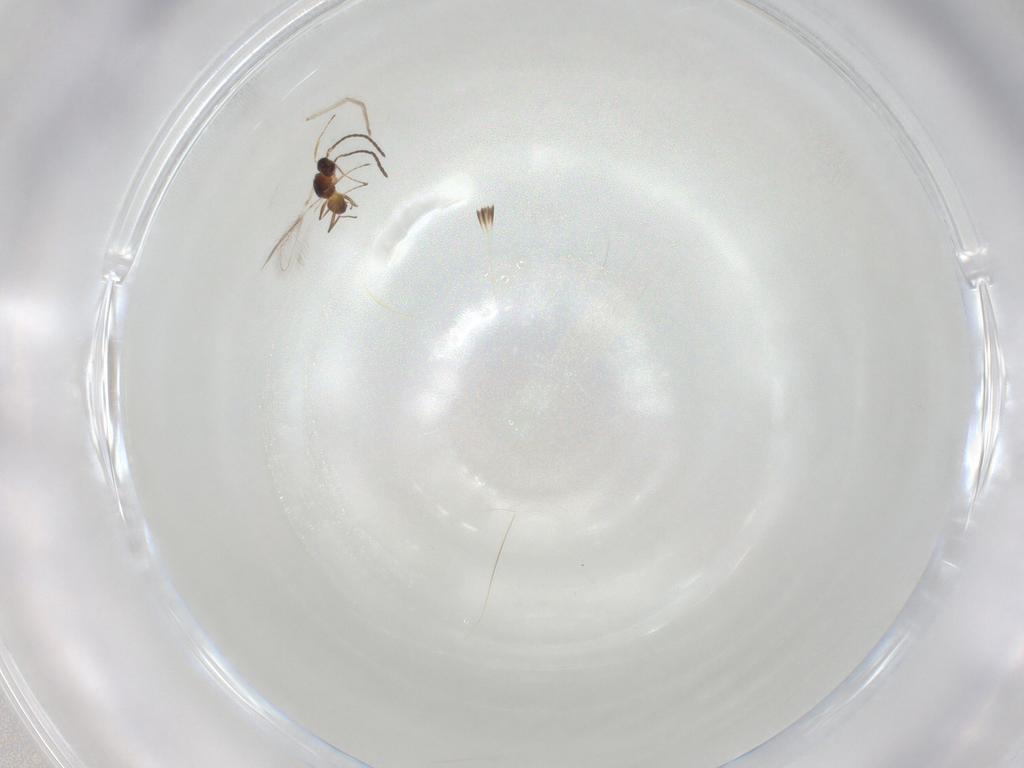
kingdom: Animalia
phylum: Arthropoda
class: Insecta
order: Hymenoptera
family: Mymaridae
